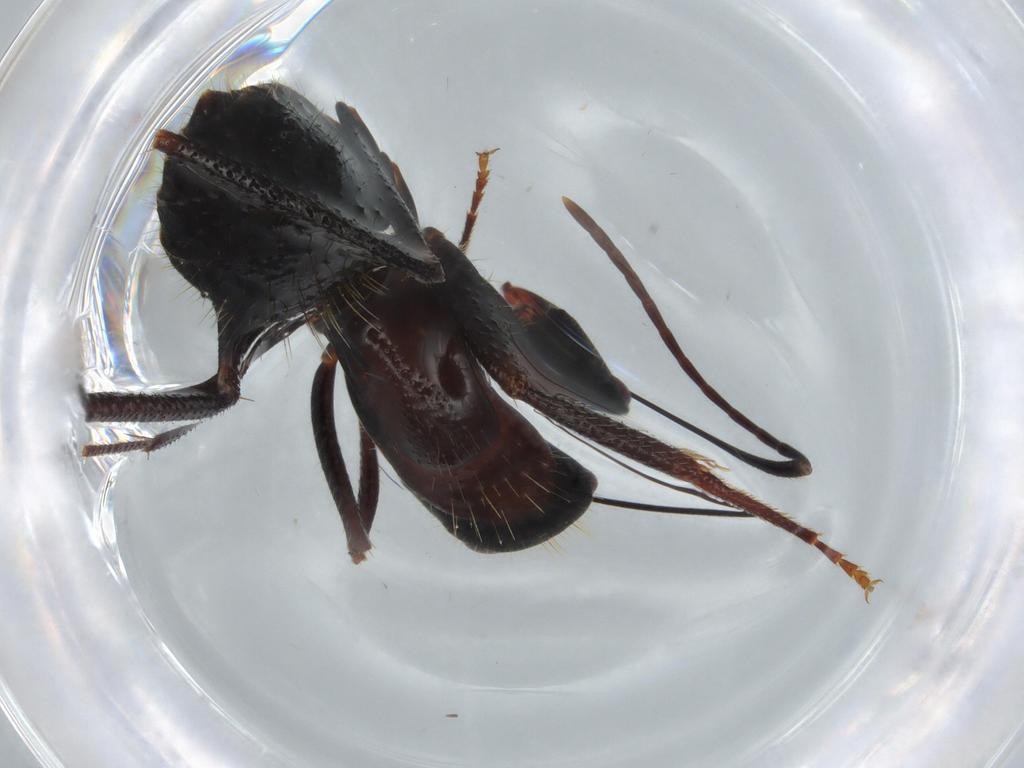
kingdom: Animalia
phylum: Arthropoda
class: Insecta
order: Hymenoptera
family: Formicidae
